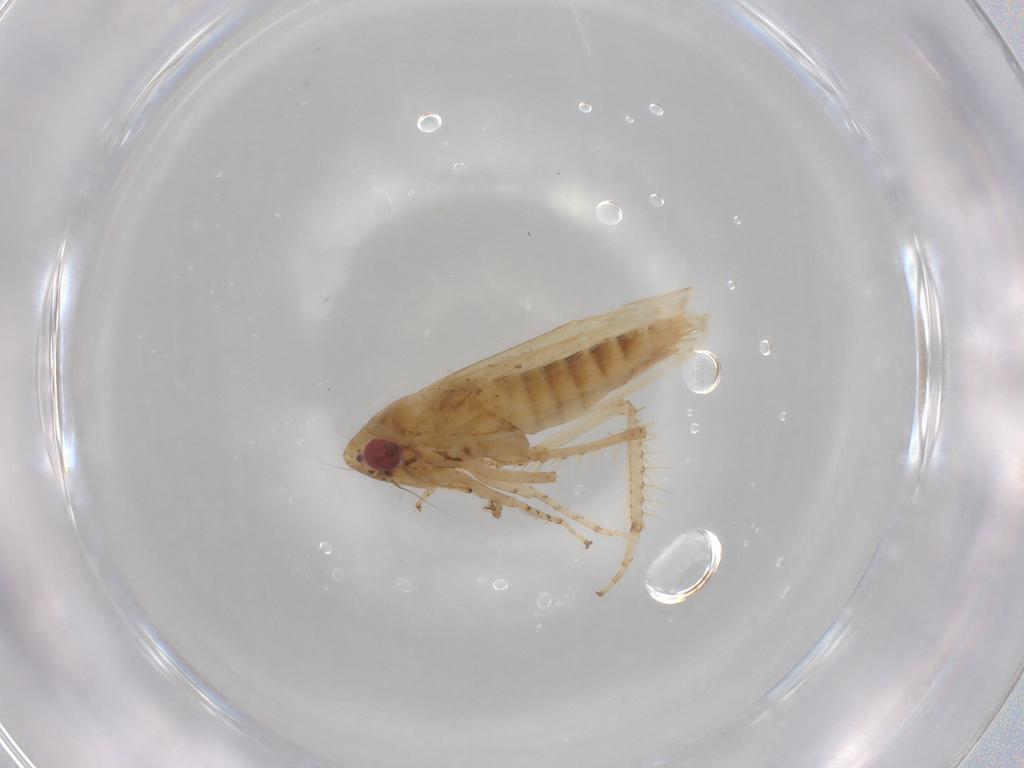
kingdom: Animalia
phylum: Arthropoda
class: Insecta
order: Hemiptera
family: Cicadellidae
